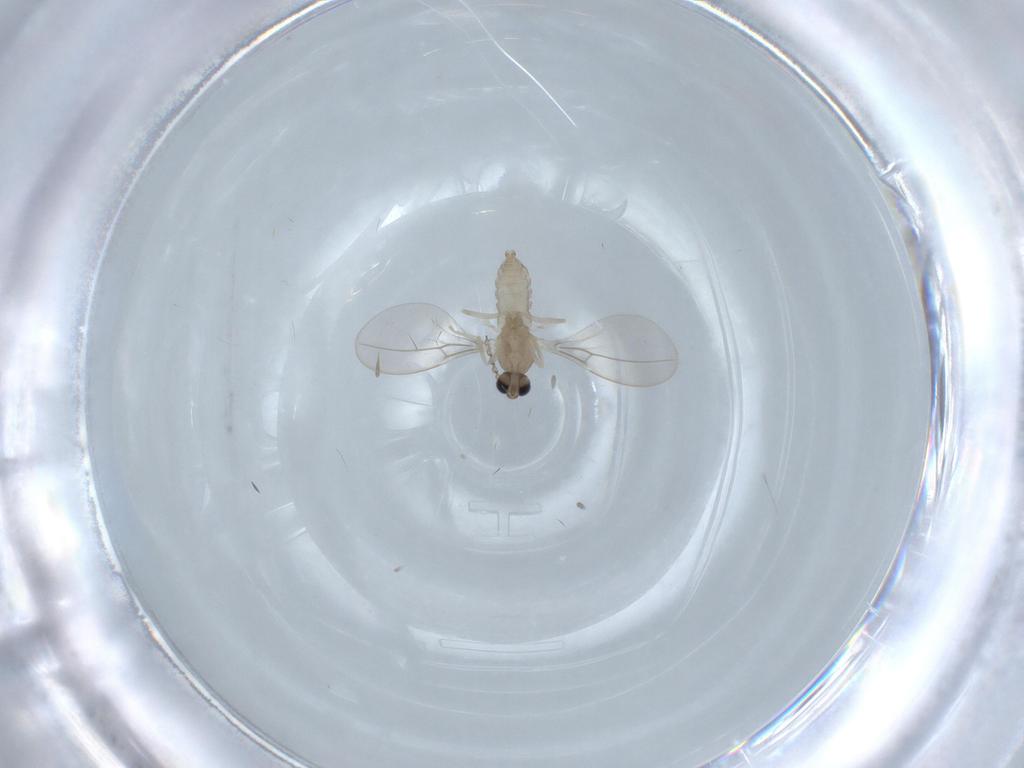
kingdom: Animalia
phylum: Arthropoda
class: Insecta
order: Diptera
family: Cecidomyiidae
